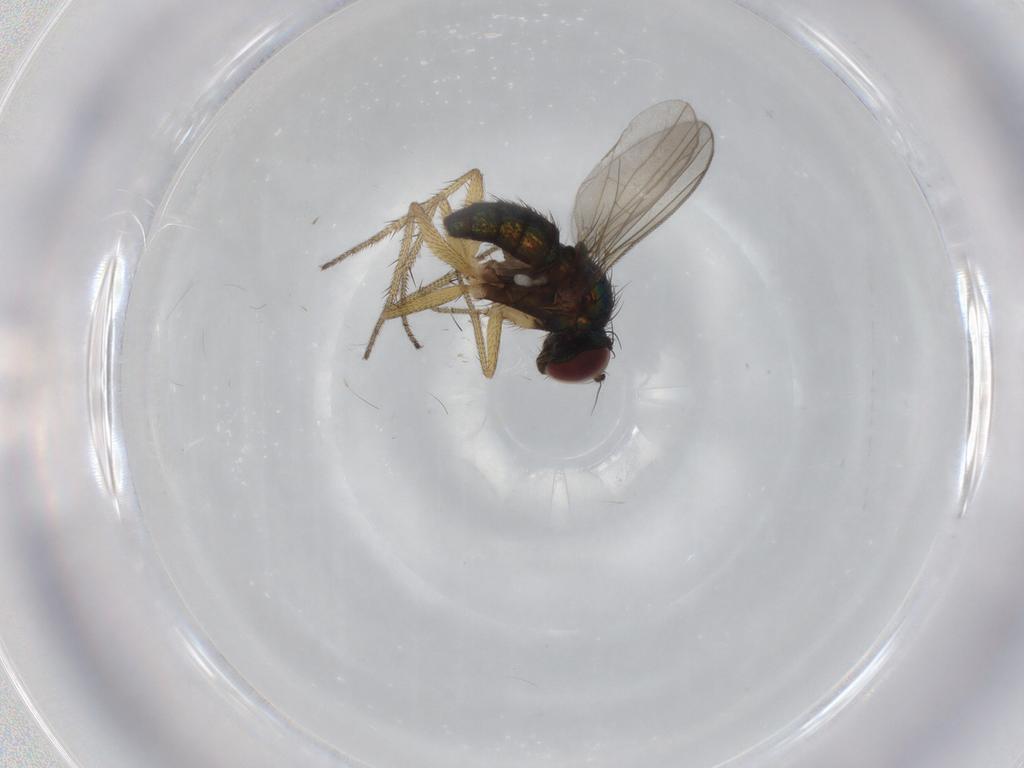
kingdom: Animalia
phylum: Arthropoda
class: Insecta
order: Diptera
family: Dolichopodidae
